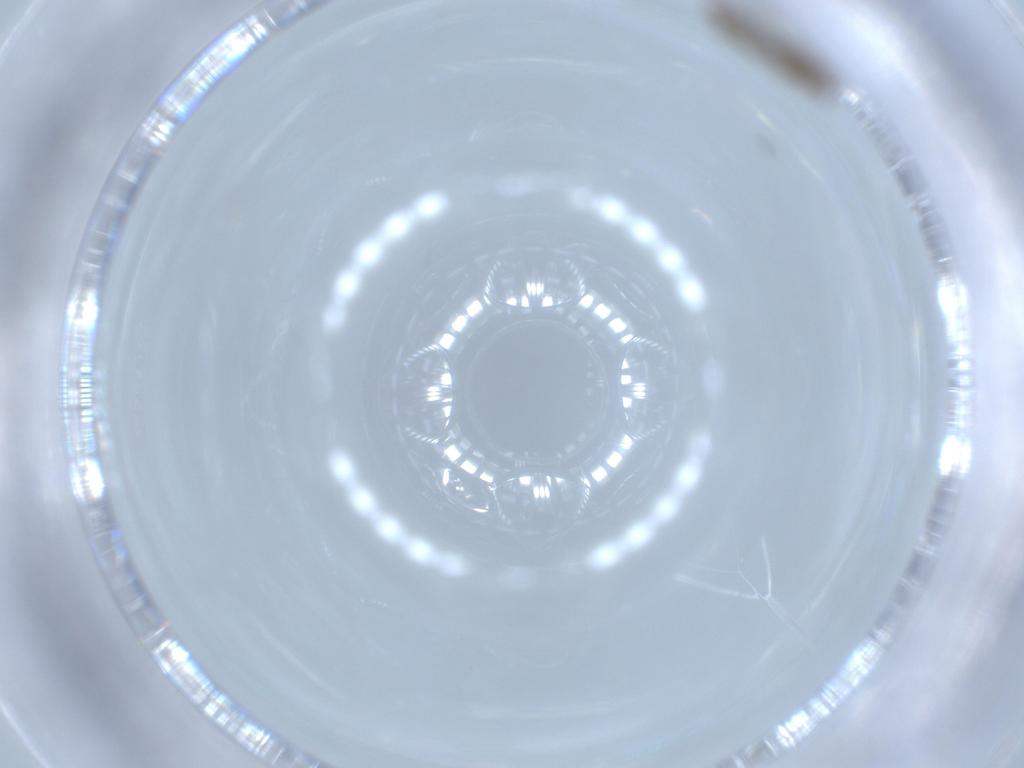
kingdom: Animalia
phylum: Arthropoda
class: Insecta
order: Diptera
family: Chironomidae
